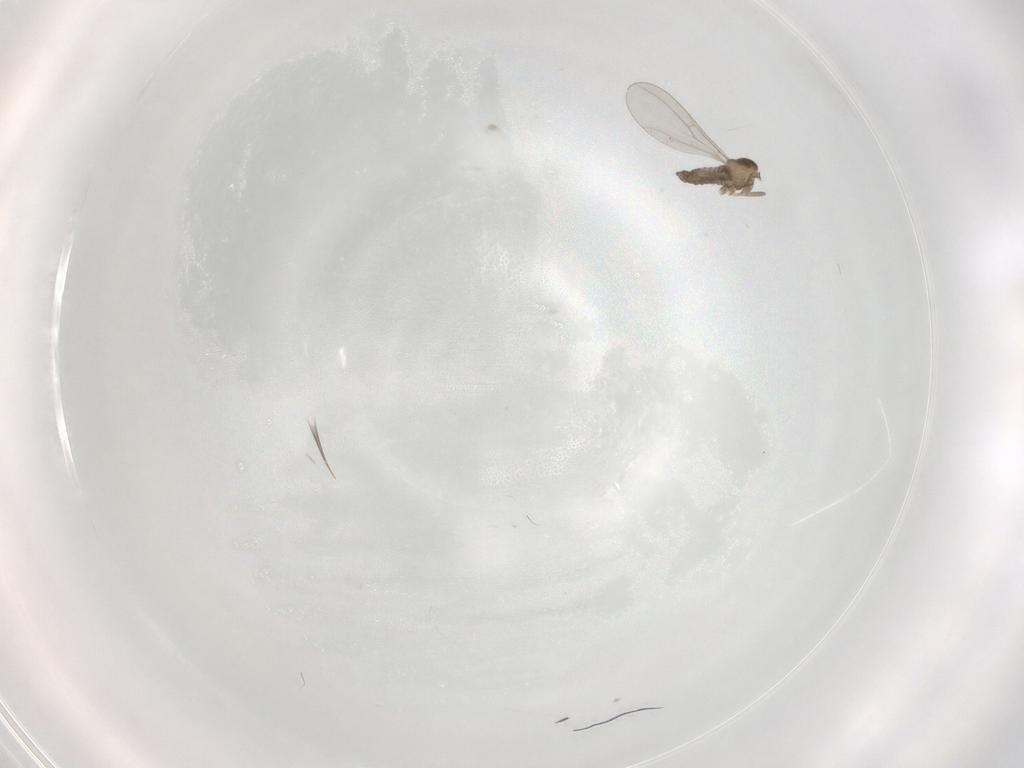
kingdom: Animalia
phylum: Arthropoda
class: Insecta
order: Diptera
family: Cecidomyiidae
